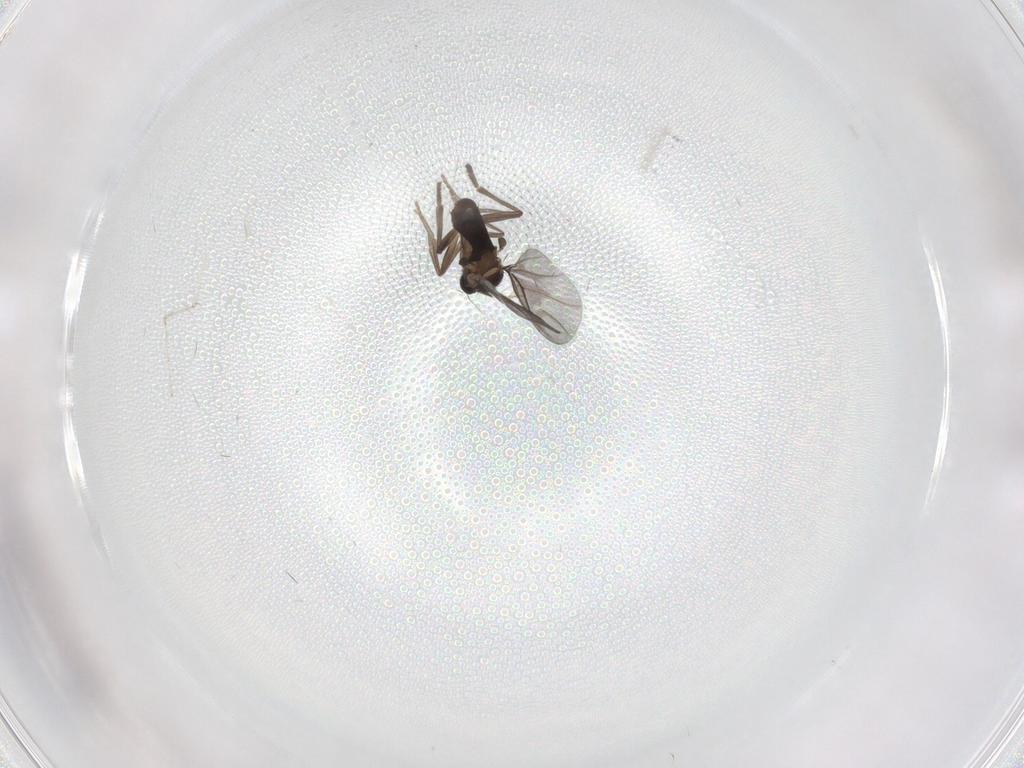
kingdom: Animalia
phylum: Arthropoda
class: Insecta
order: Diptera
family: Cecidomyiidae
